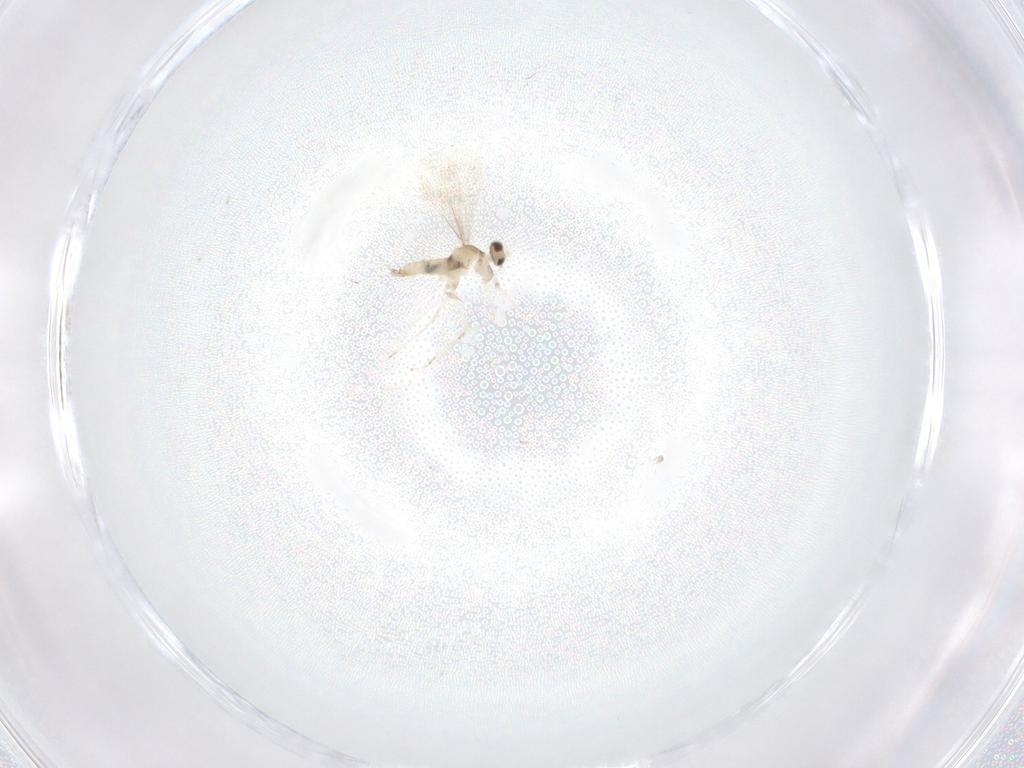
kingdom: Animalia
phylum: Arthropoda
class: Insecta
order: Diptera
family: Cecidomyiidae
